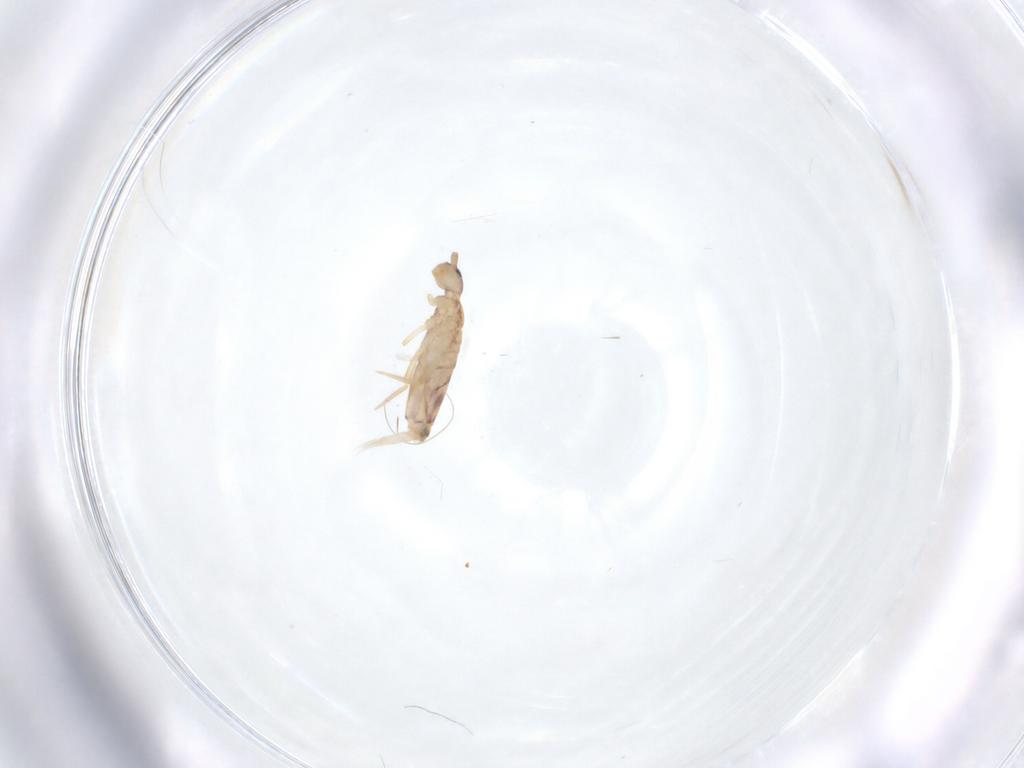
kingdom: Animalia
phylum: Arthropoda
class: Collembola
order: Entomobryomorpha
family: Entomobryidae
